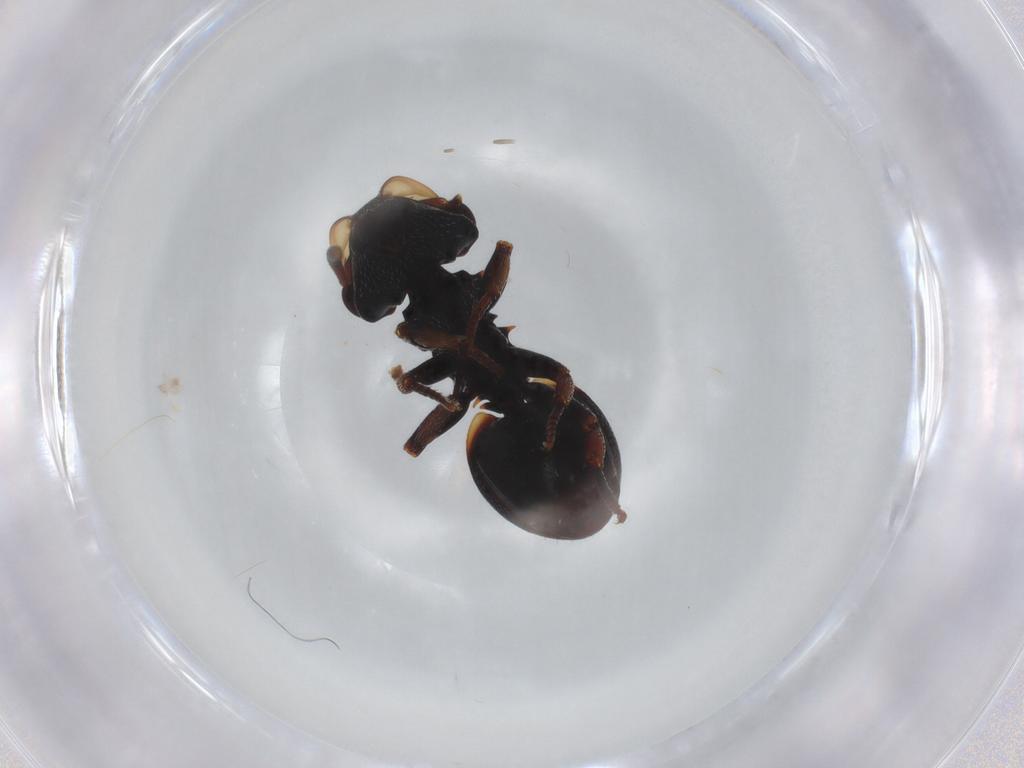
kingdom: Animalia
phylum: Arthropoda
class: Insecta
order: Hymenoptera
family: Formicidae
